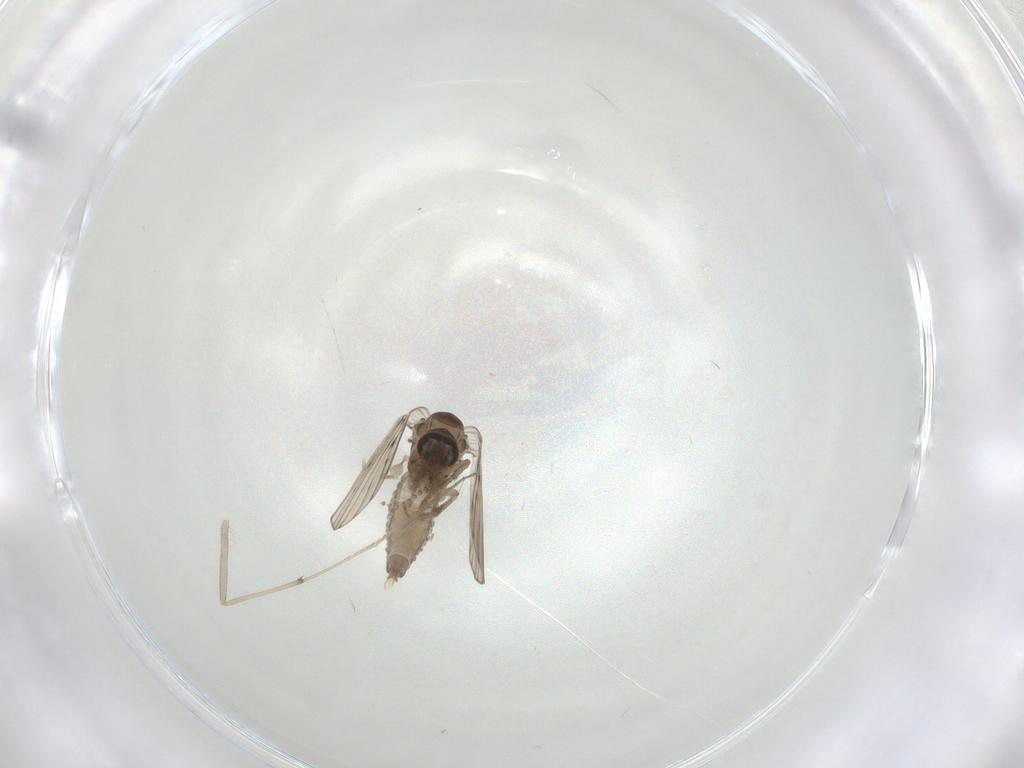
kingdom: Animalia
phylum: Arthropoda
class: Insecta
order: Diptera
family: Psychodidae
